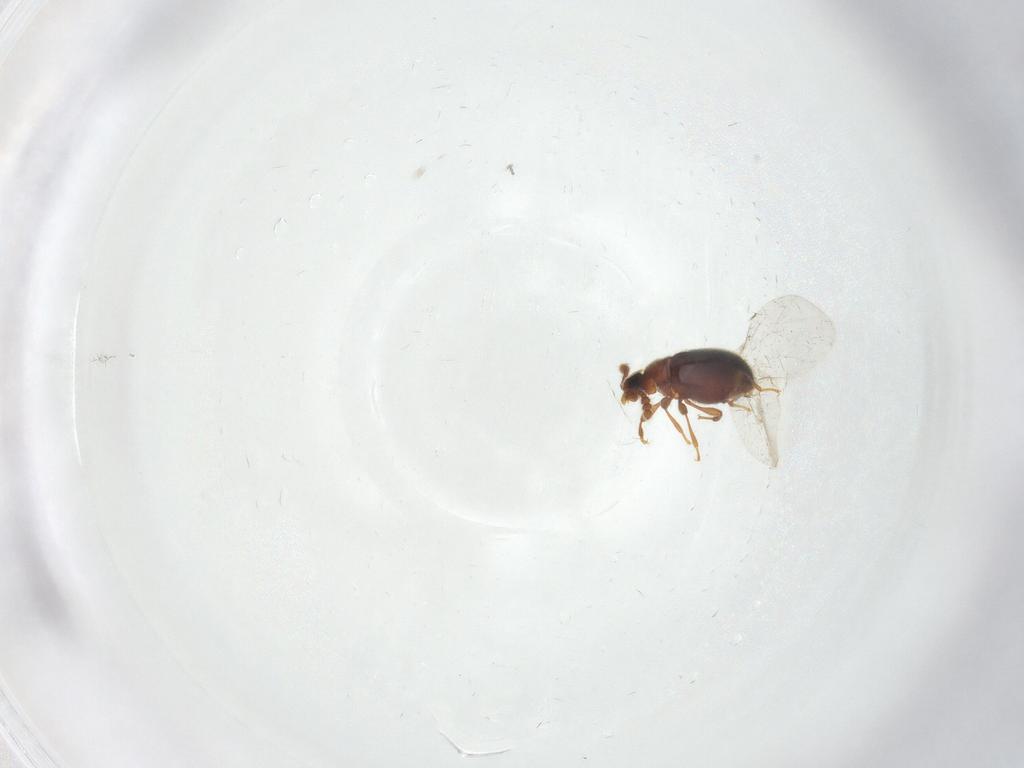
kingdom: Animalia
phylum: Arthropoda
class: Insecta
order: Coleoptera
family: Staphylinidae
